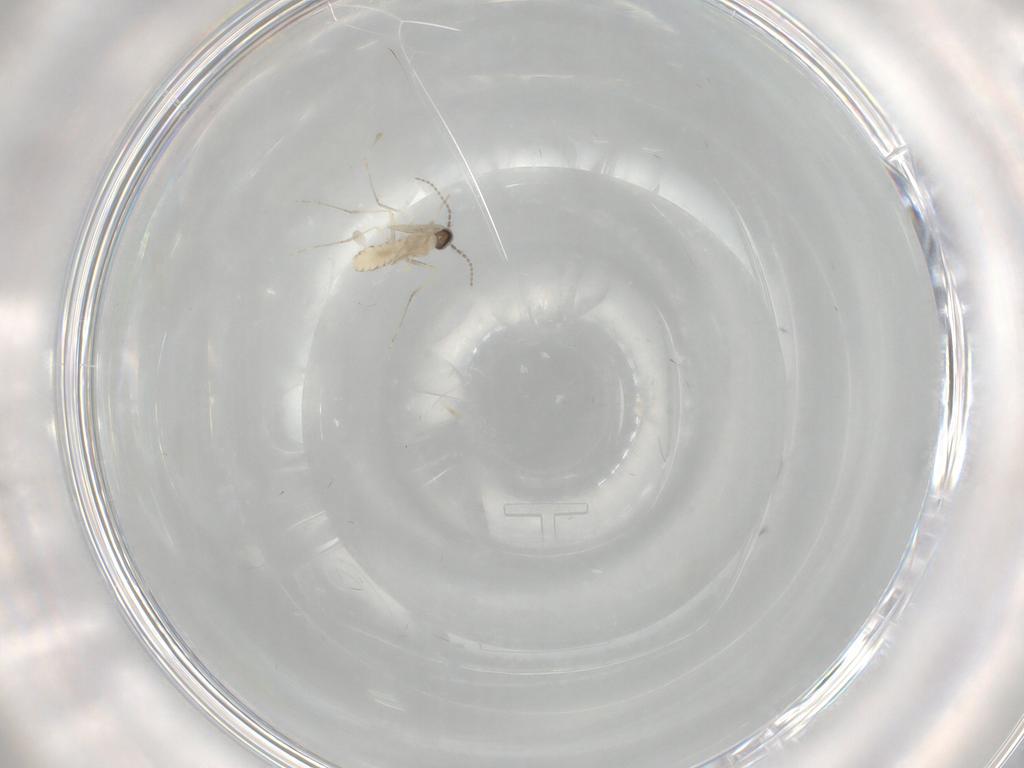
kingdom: Animalia
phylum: Arthropoda
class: Insecta
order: Diptera
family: Cecidomyiidae
